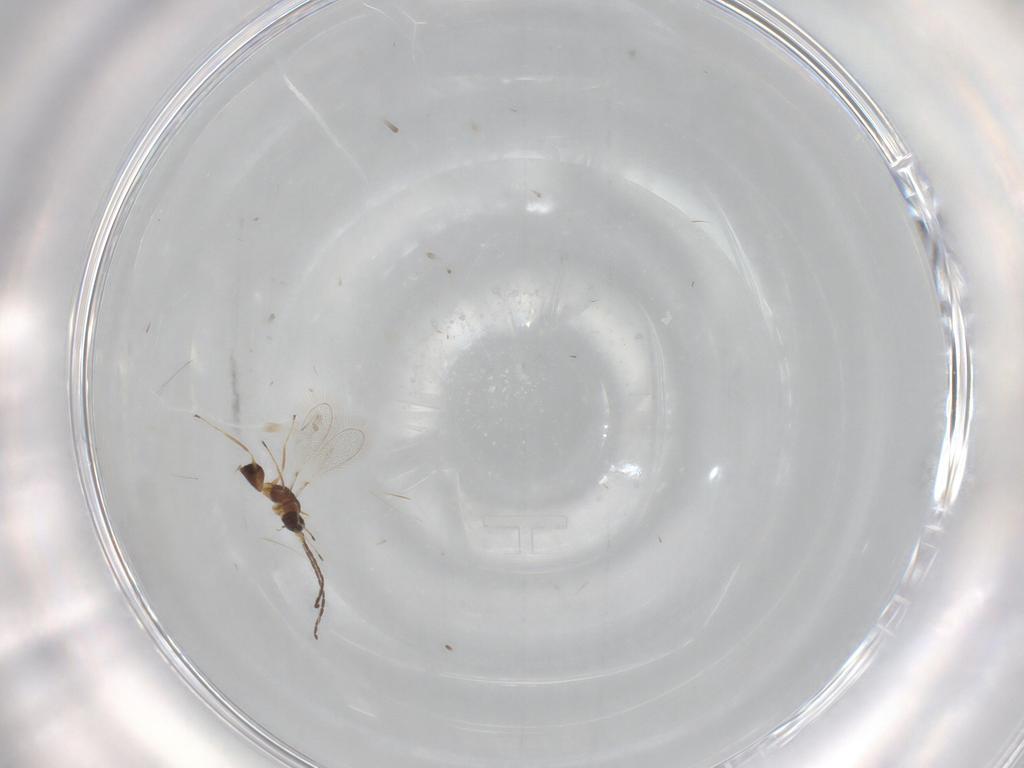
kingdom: Animalia
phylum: Arthropoda
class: Insecta
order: Hymenoptera
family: Mymaridae
